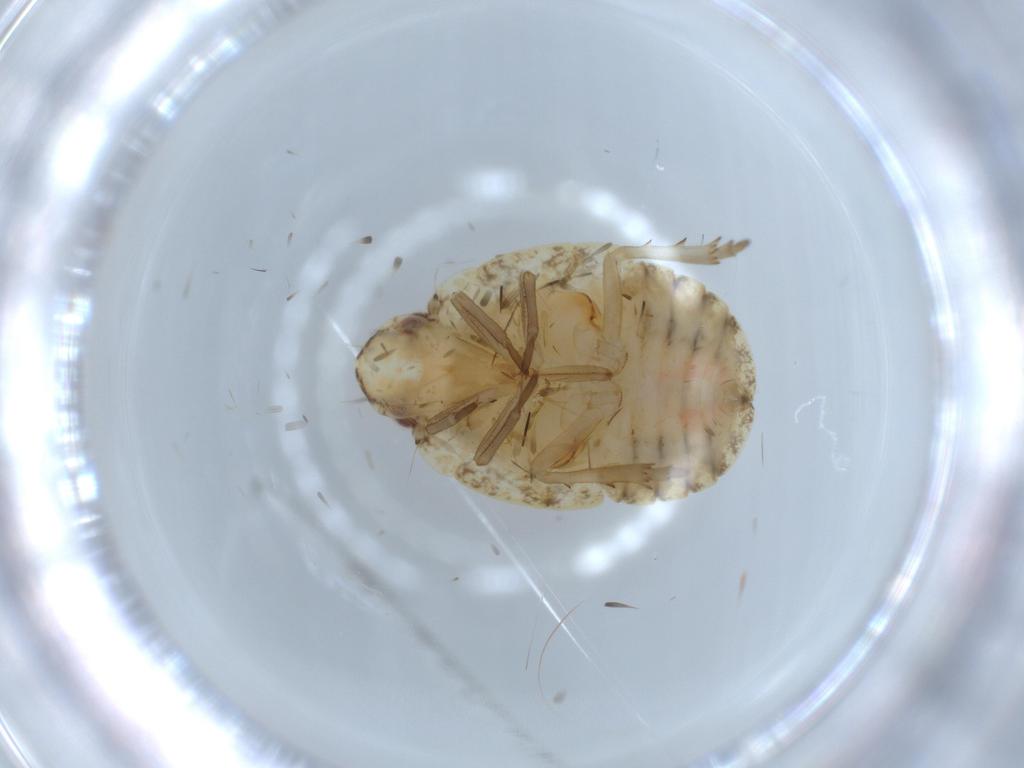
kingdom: Animalia
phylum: Arthropoda
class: Insecta
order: Hemiptera
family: Flatidae
